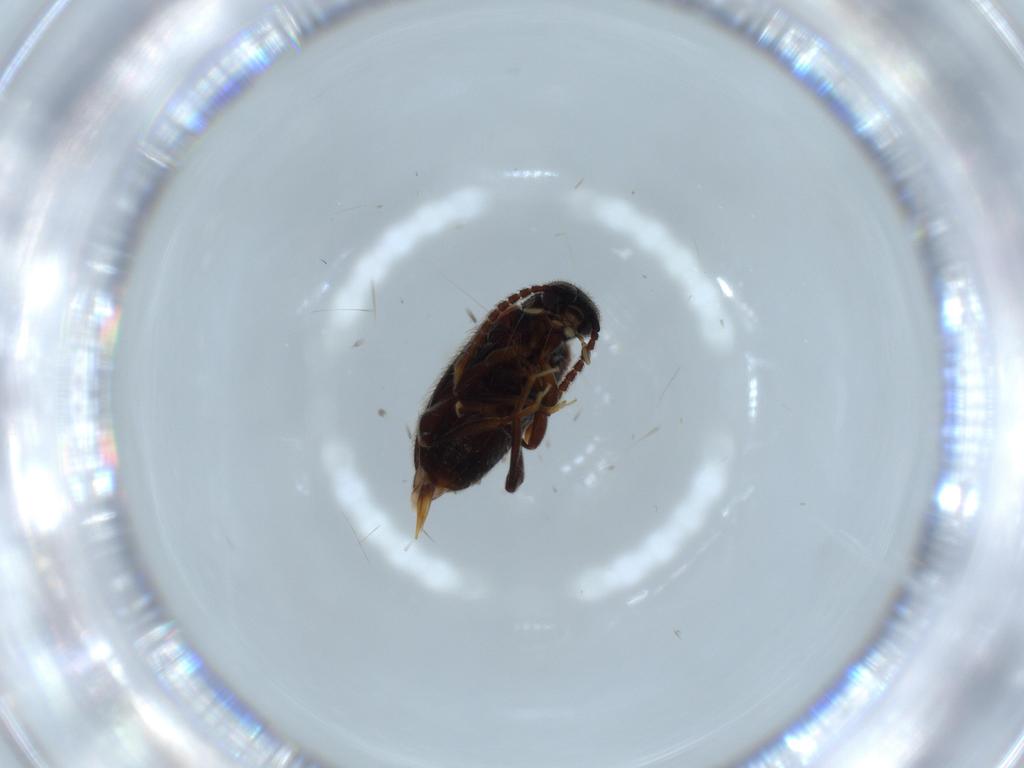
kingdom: Animalia
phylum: Arthropoda
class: Insecta
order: Coleoptera
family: Aderidae
